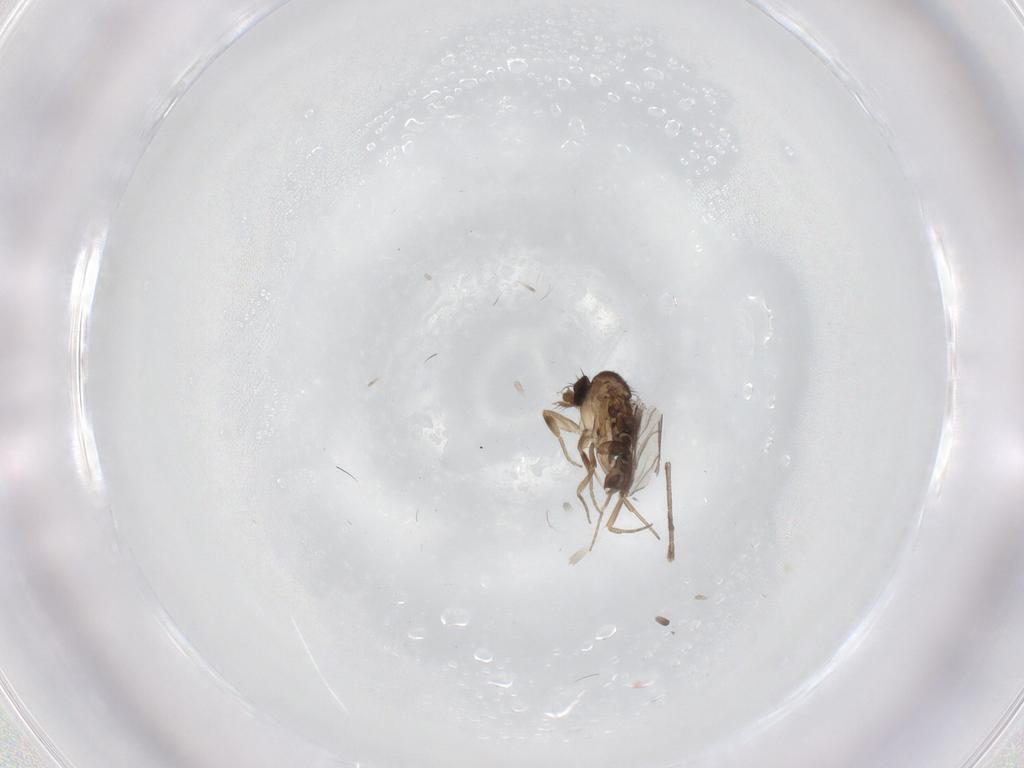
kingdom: Animalia
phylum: Arthropoda
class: Insecta
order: Diptera
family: Phoridae
